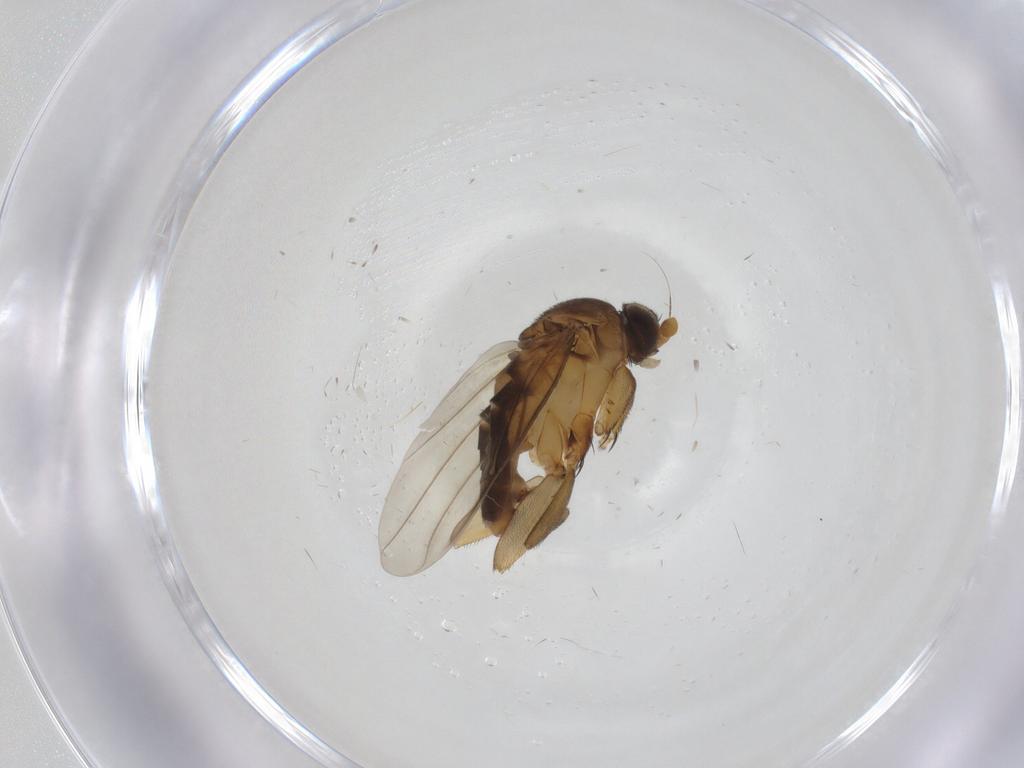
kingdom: Animalia
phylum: Arthropoda
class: Insecta
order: Diptera
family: Phoridae
